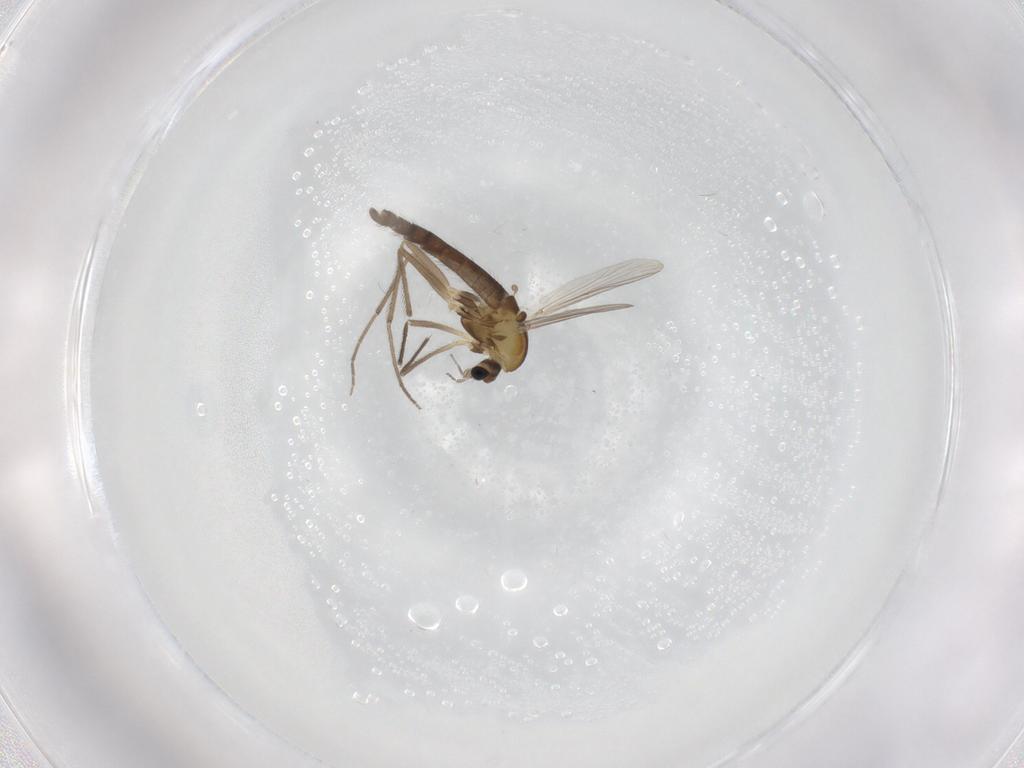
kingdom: Animalia
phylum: Arthropoda
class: Insecta
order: Diptera
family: Chironomidae
